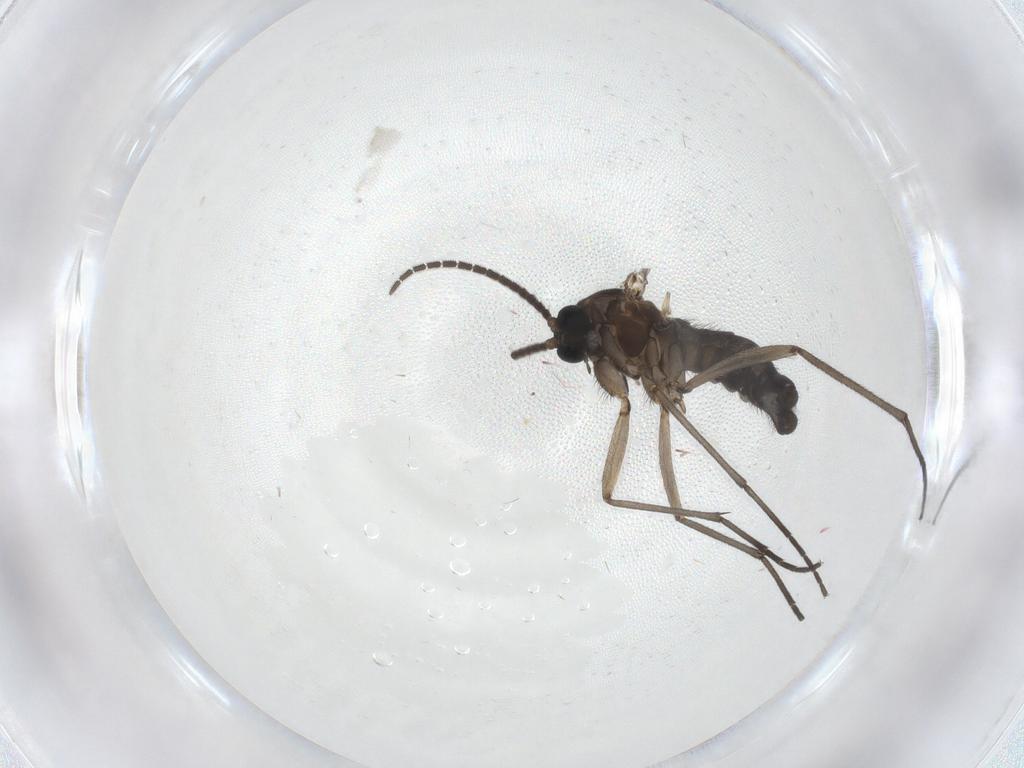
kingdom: Animalia
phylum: Arthropoda
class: Insecta
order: Diptera
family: Sciaridae
